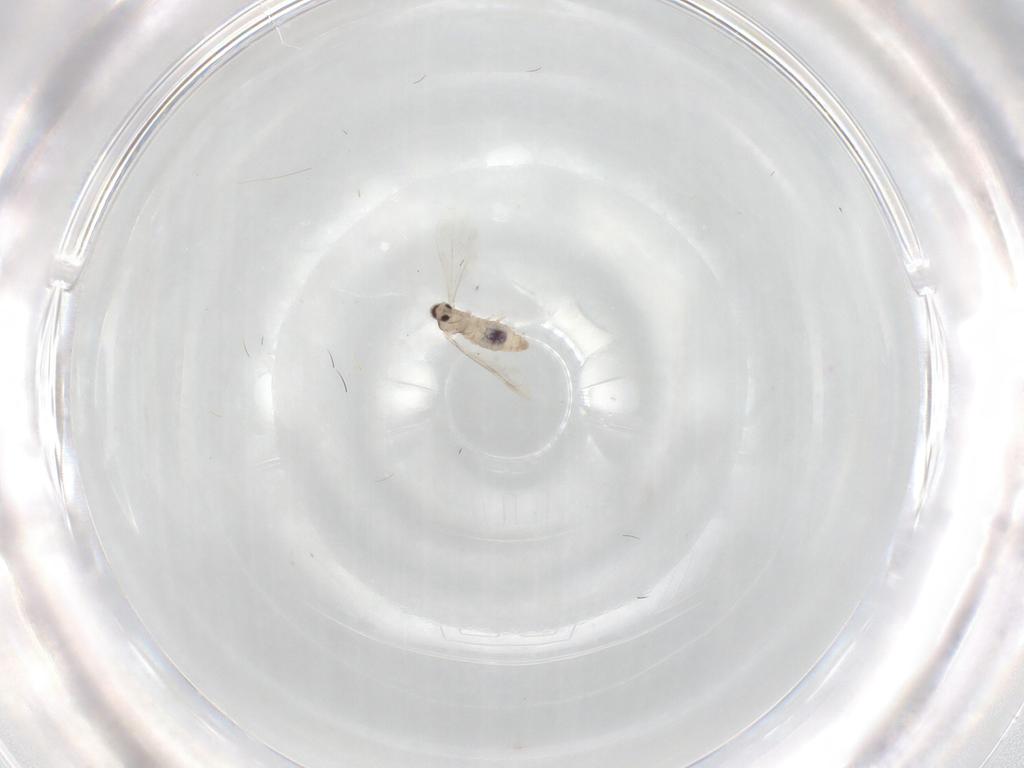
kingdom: Animalia
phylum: Arthropoda
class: Insecta
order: Diptera
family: Cecidomyiidae
